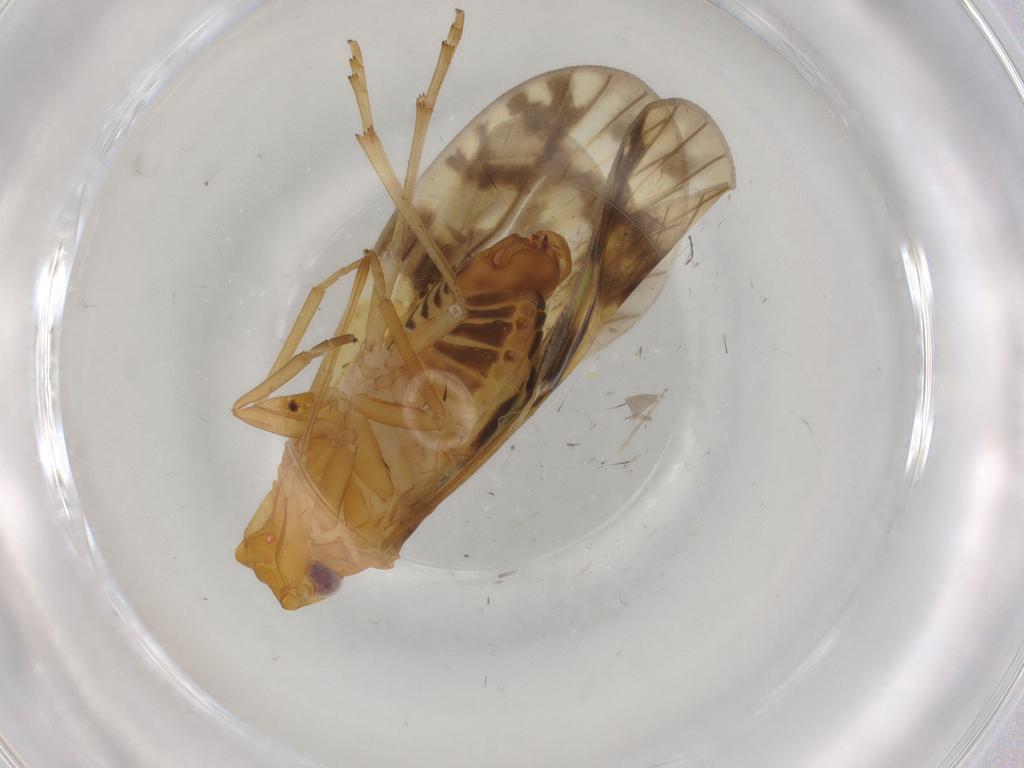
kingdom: Animalia
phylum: Arthropoda
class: Insecta
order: Hemiptera
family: Cixiidae
